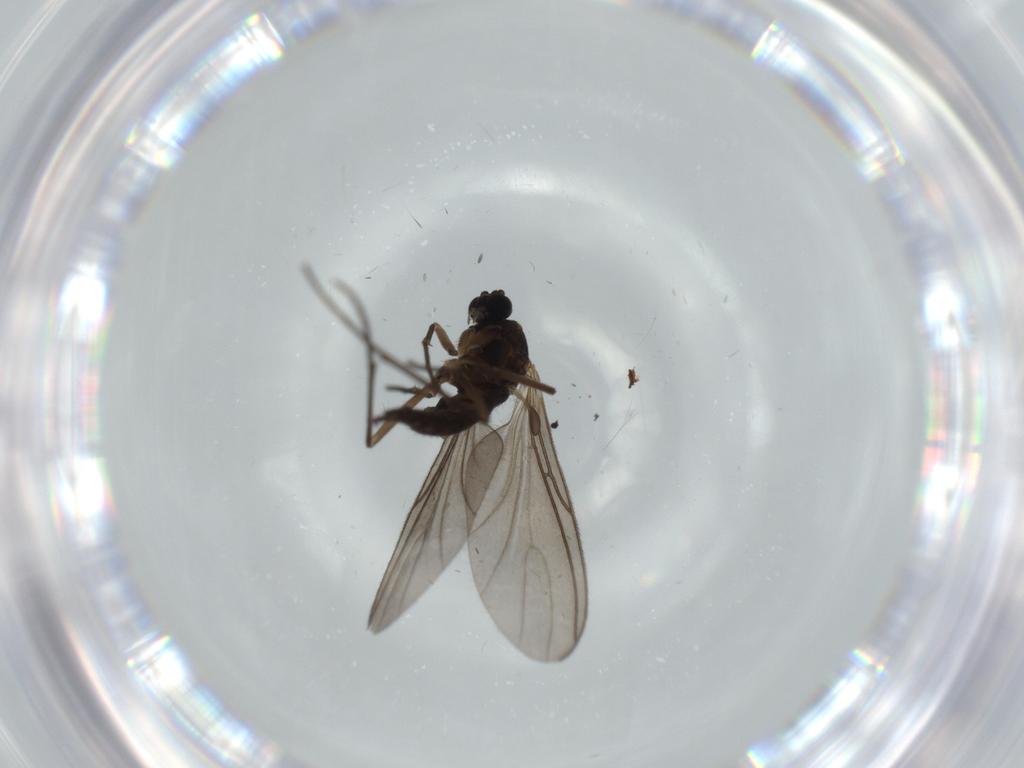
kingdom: Animalia
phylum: Arthropoda
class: Insecta
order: Diptera
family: Sciaridae
